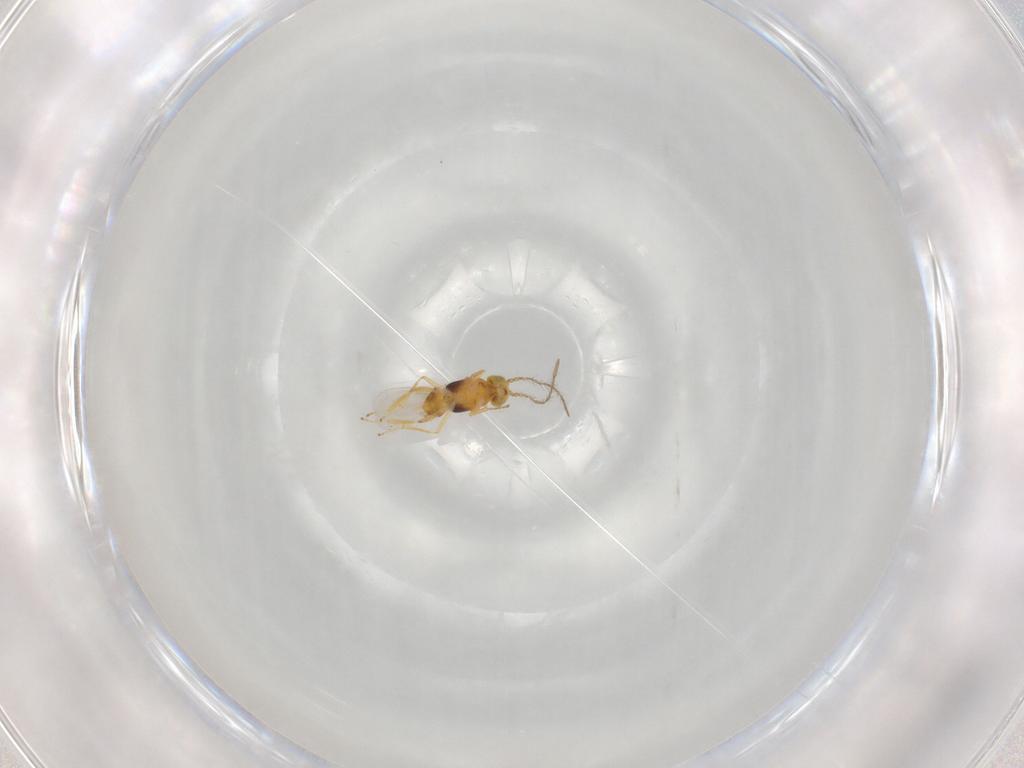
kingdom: Animalia
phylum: Arthropoda
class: Insecta
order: Hymenoptera
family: Encyrtidae
